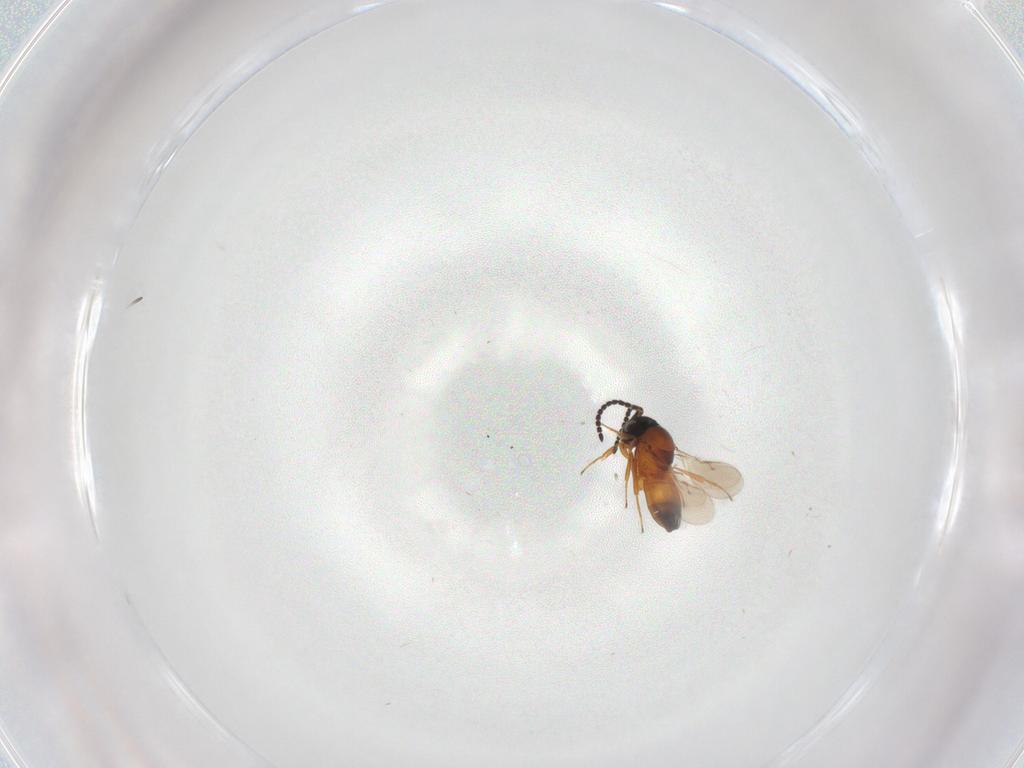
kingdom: Animalia
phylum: Arthropoda
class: Insecta
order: Hymenoptera
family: Scelionidae
